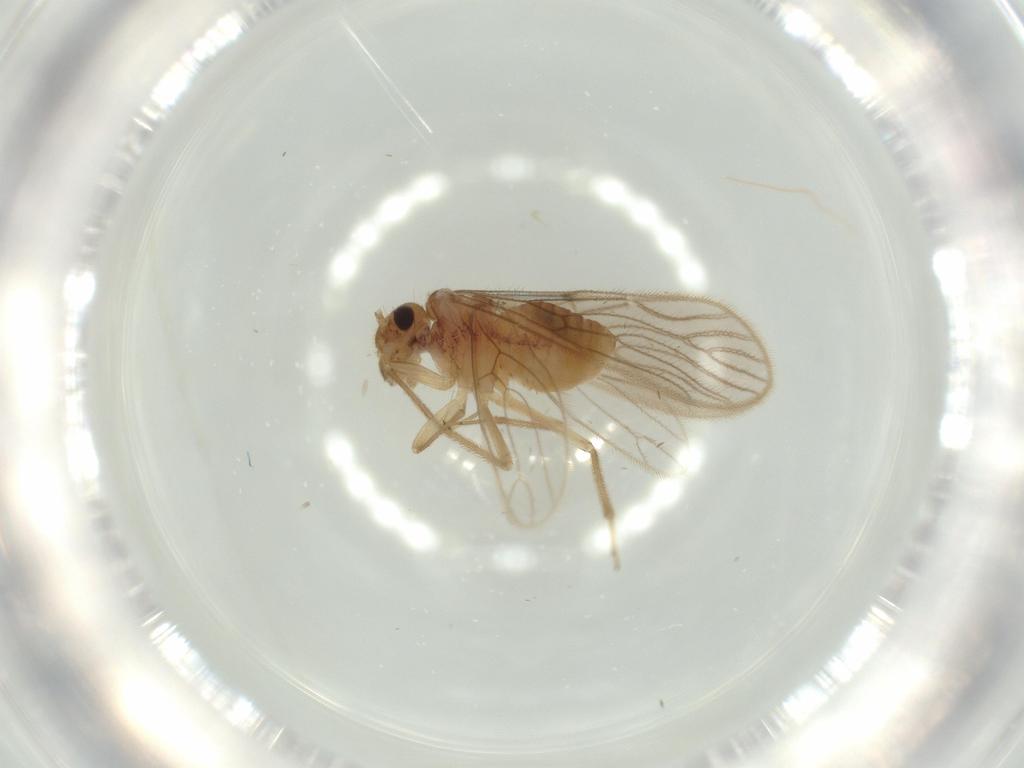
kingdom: Animalia
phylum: Arthropoda
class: Insecta
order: Psocodea
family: Cladiopsocidae
